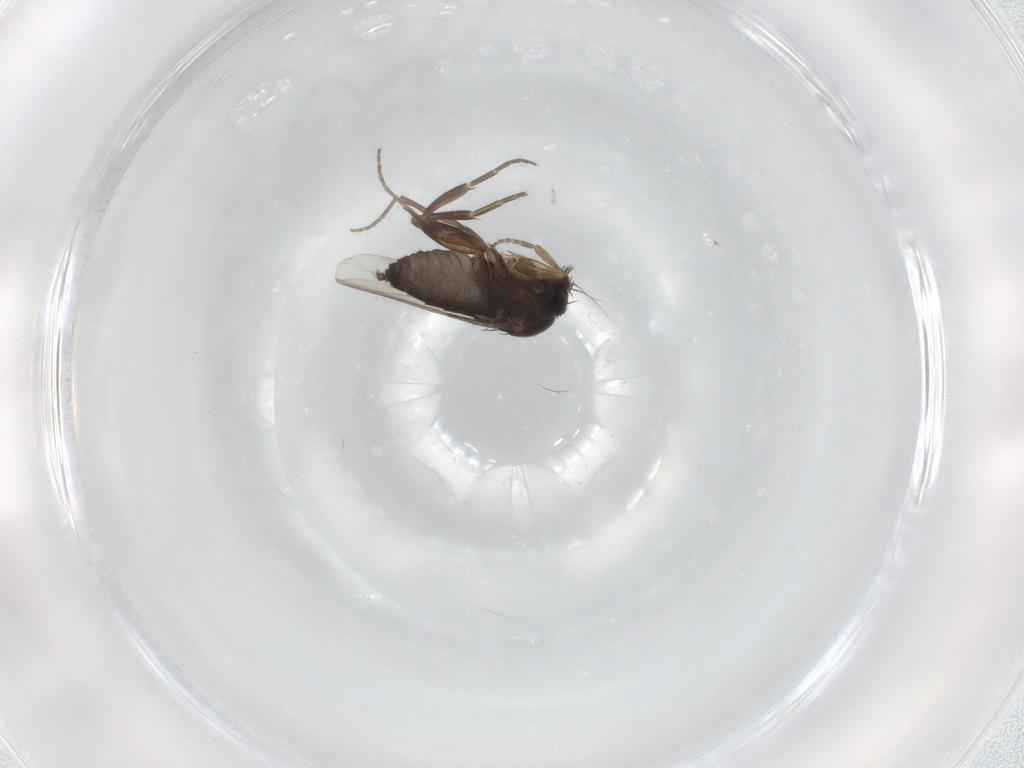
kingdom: Animalia
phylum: Arthropoda
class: Insecta
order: Diptera
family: Phoridae
